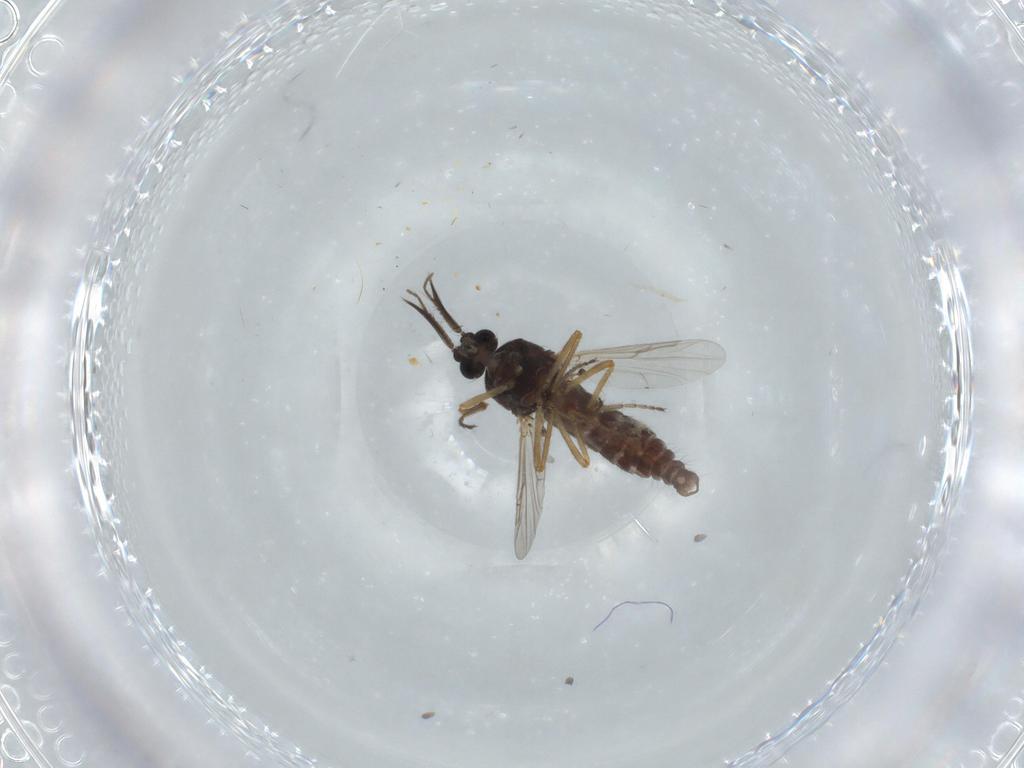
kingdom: Animalia
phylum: Arthropoda
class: Insecta
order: Diptera
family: Ceratopogonidae
